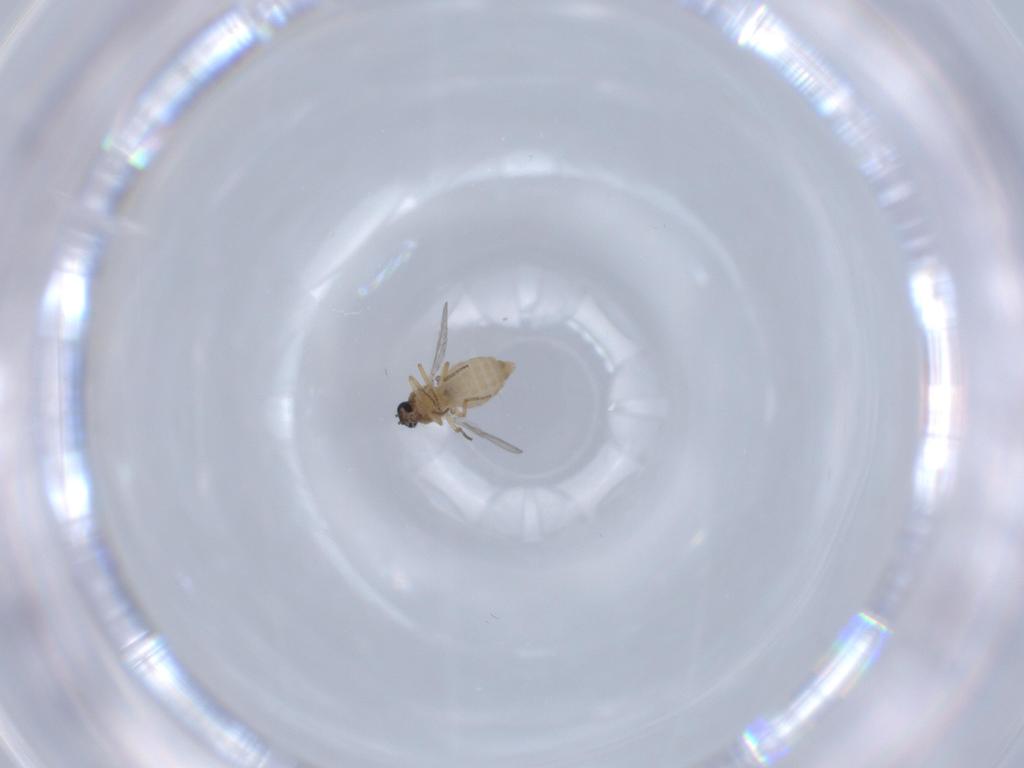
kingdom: Animalia
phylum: Arthropoda
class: Insecta
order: Diptera
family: Ceratopogonidae
